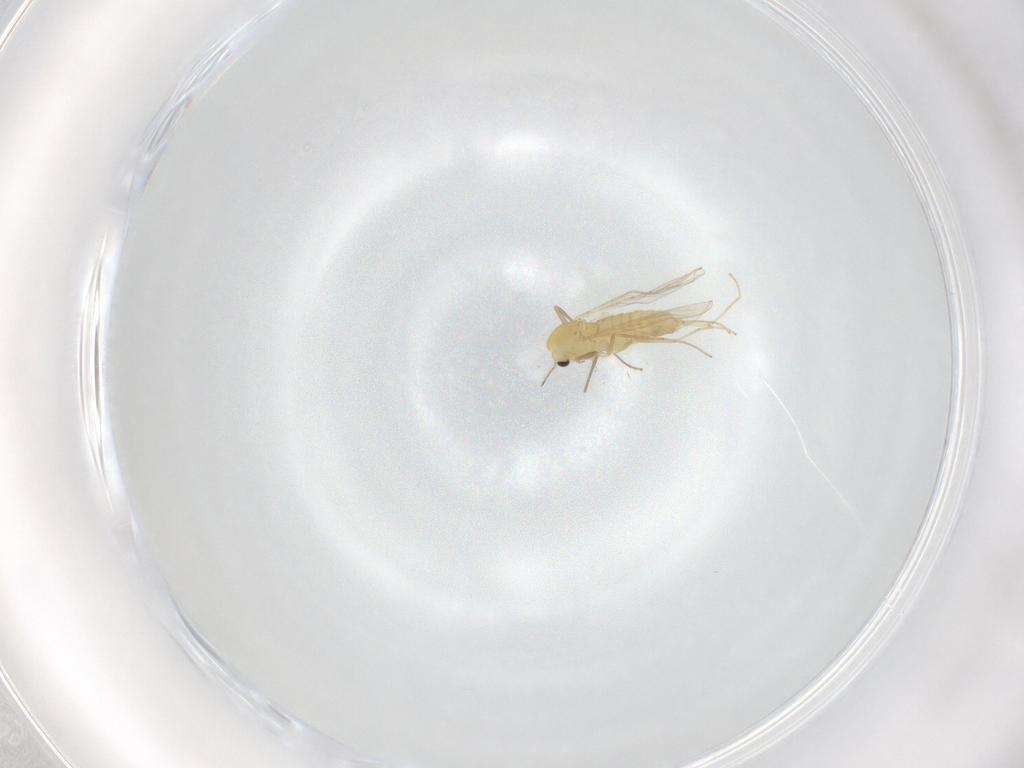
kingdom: Animalia
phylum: Arthropoda
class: Insecta
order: Diptera
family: Chironomidae
